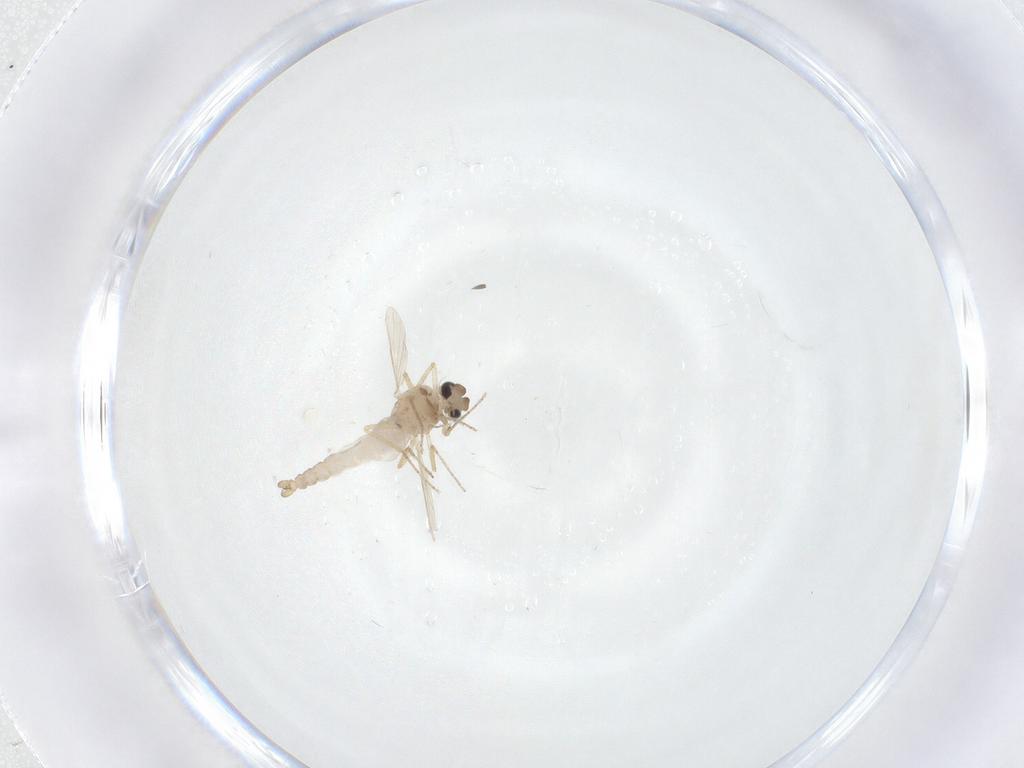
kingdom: Animalia
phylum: Arthropoda
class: Insecta
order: Diptera
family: Ceratopogonidae
